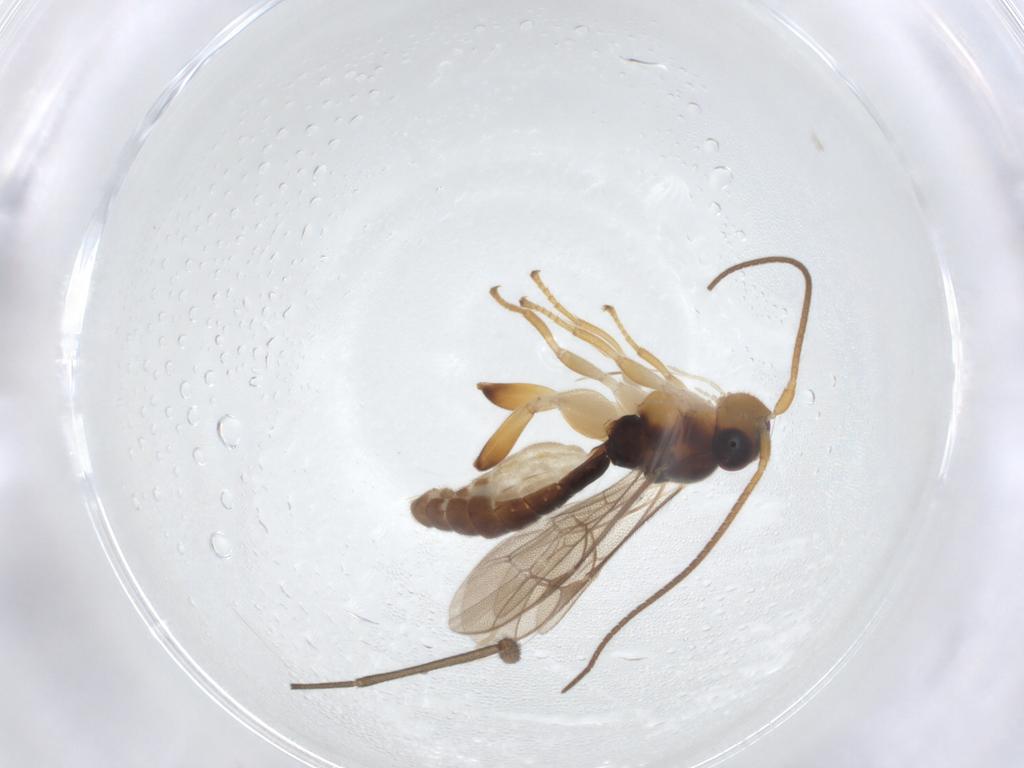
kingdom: Animalia
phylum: Arthropoda
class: Insecta
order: Hymenoptera
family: Ichneumonidae
